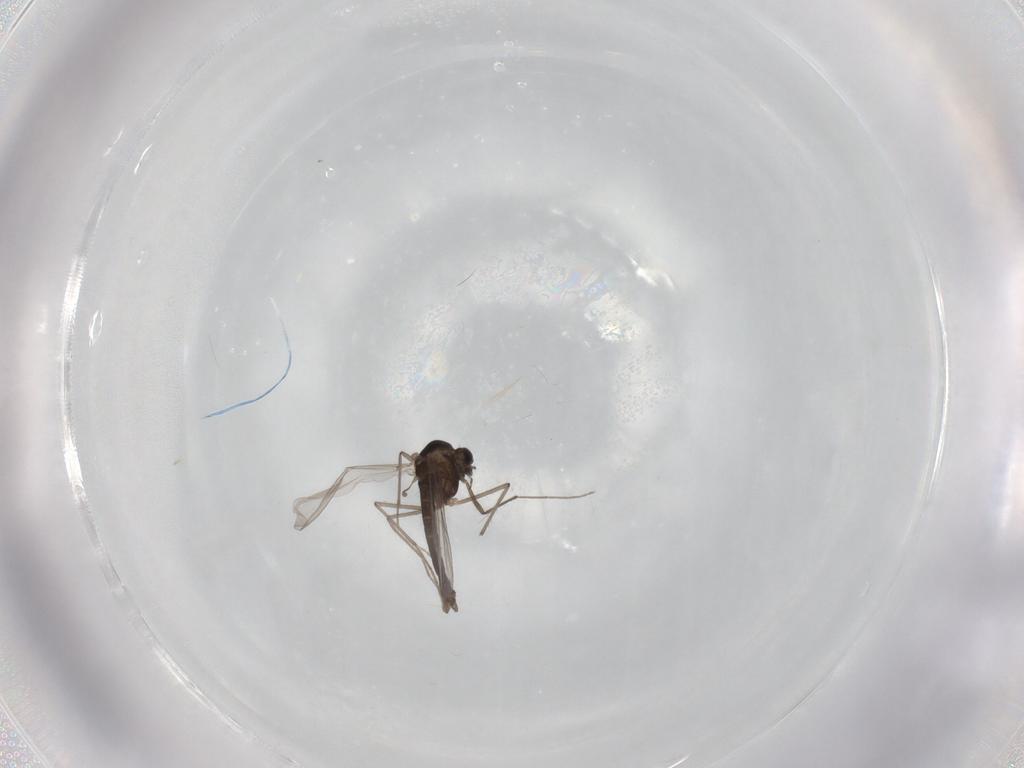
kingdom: Animalia
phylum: Arthropoda
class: Insecta
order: Diptera
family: Chironomidae
